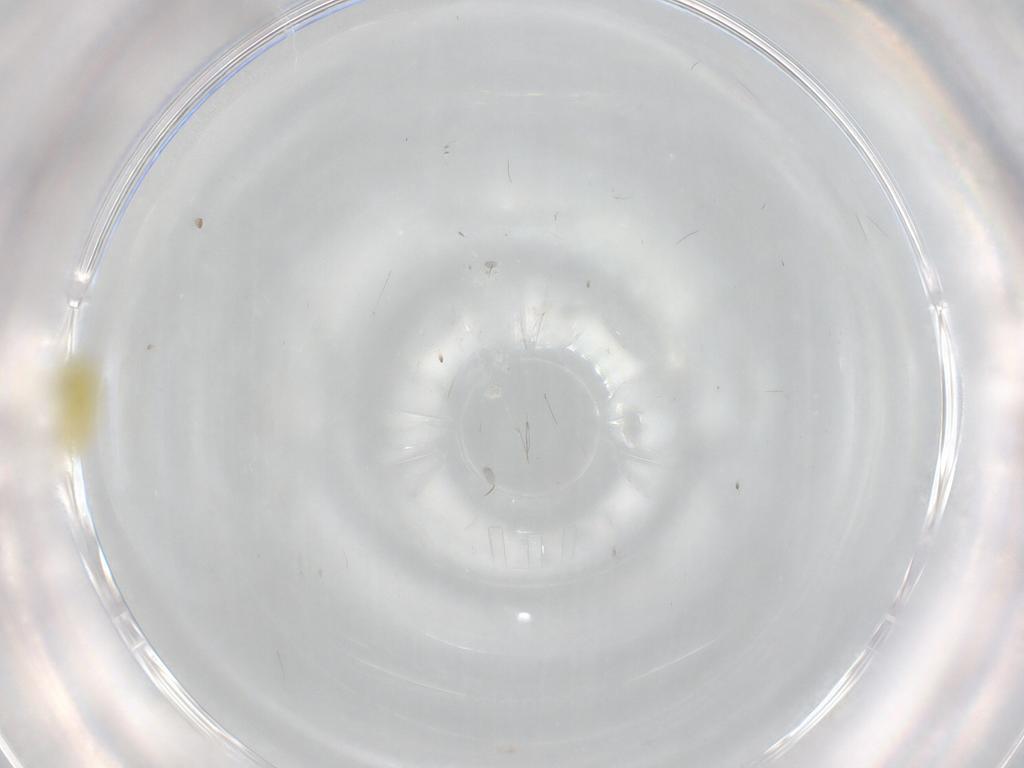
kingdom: Animalia
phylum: Arthropoda
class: Insecta
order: Hemiptera
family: Aleyrodidae
